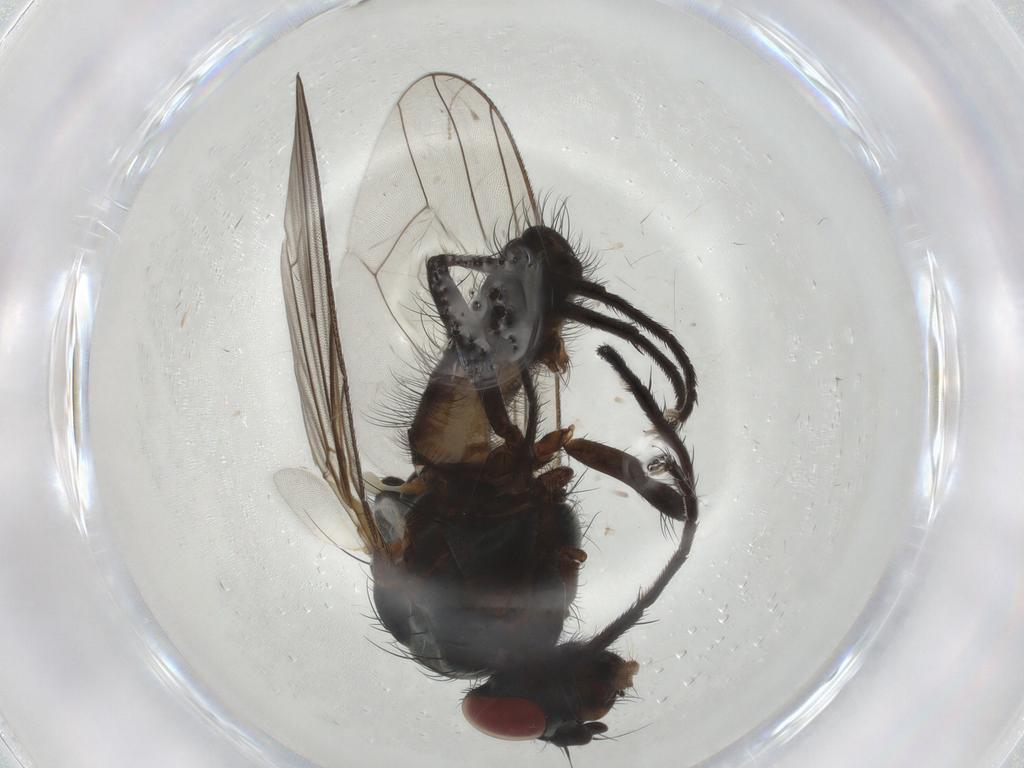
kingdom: Animalia
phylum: Arthropoda
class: Insecta
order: Diptera
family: Anthomyiidae
